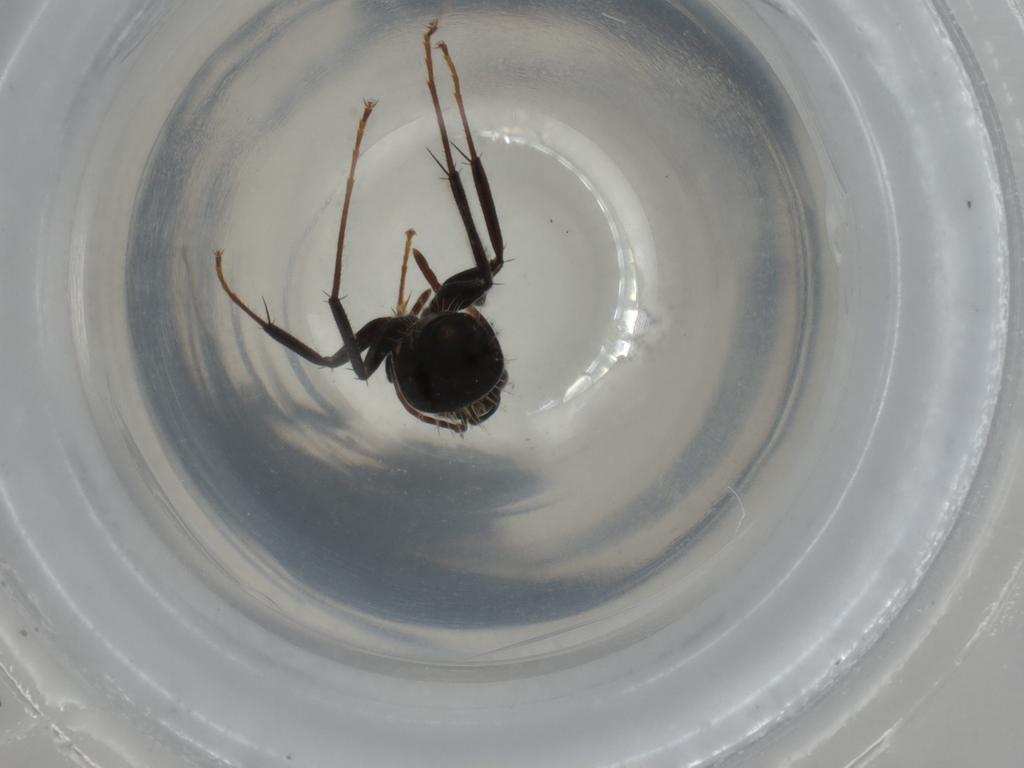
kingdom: Animalia
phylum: Arthropoda
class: Insecta
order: Hymenoptera
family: Formicidae
